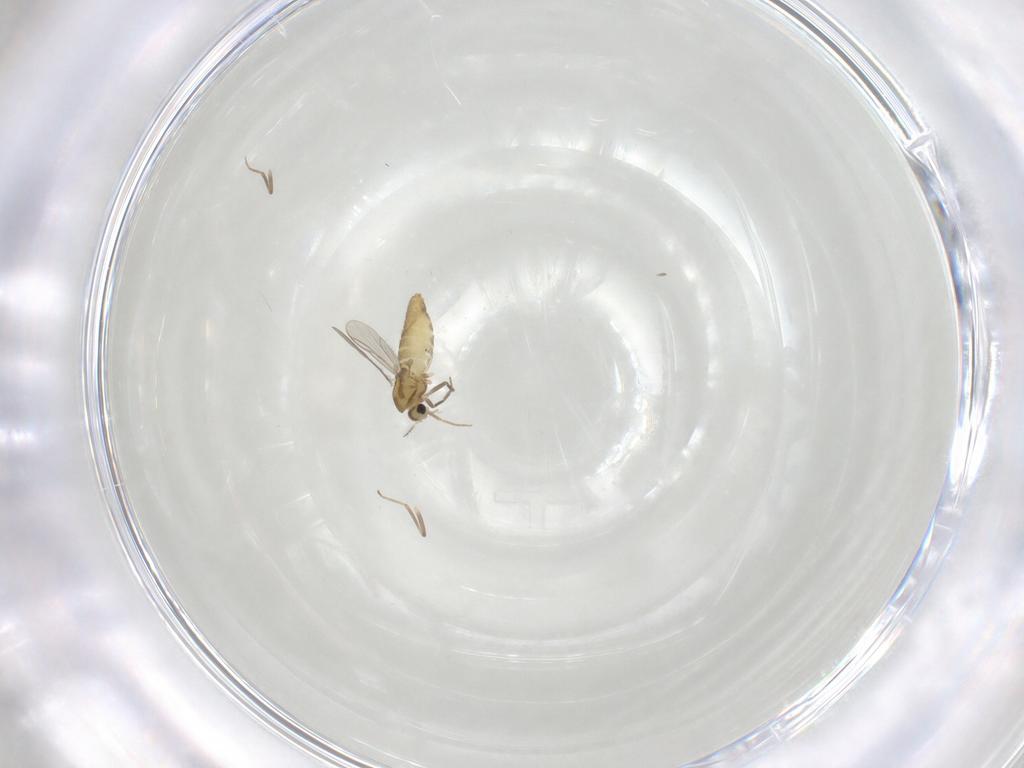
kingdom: Animalia
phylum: Arthropoda
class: Insecta
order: Diptera
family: Chironomidae
